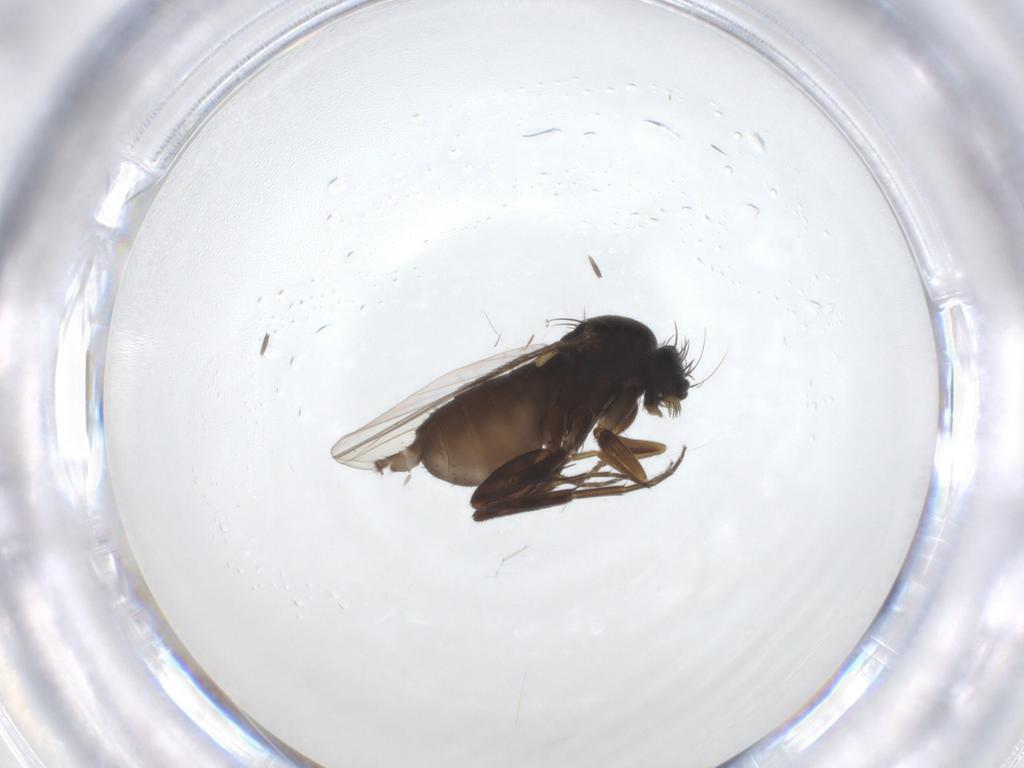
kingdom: Animalia
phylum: Arthropoda
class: Insecta
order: Diptera
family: Phoridae
